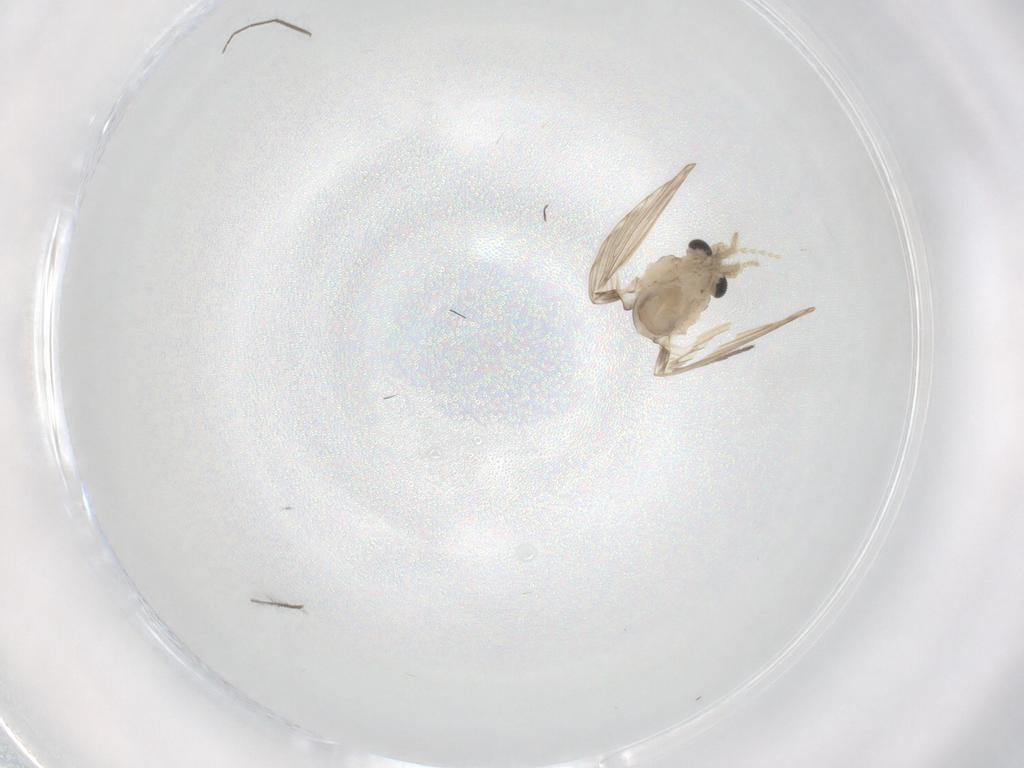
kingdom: Animalia
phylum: Arthropoda
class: Insecta
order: Diptera
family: Psychodidae
